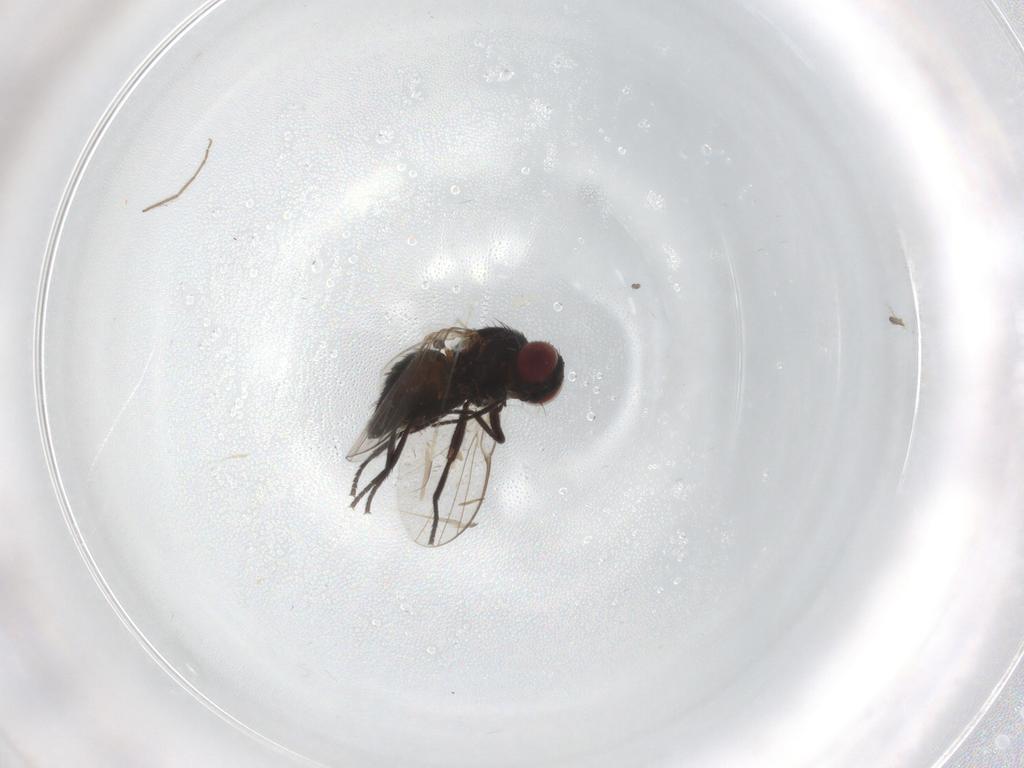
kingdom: Animalia
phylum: Arthropoda
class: Insecta
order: Diptera
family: Cecidomyiidae
